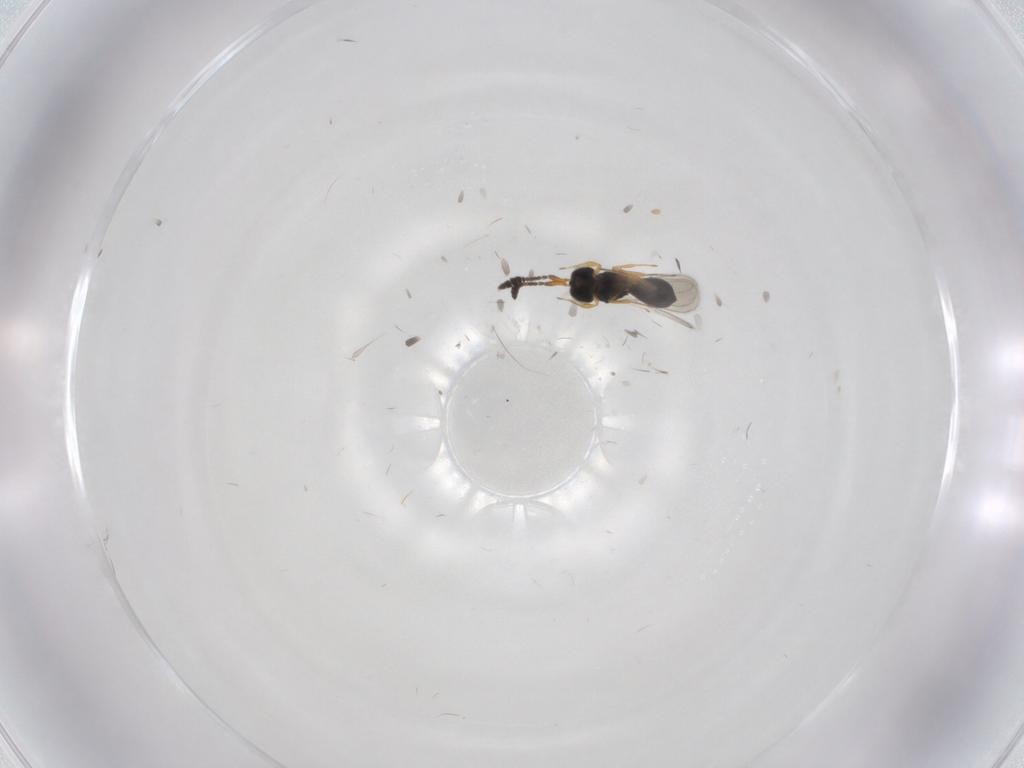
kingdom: Animalia
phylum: Arthropoda
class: Insecta
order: Hymenoptera
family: Scelionidae
